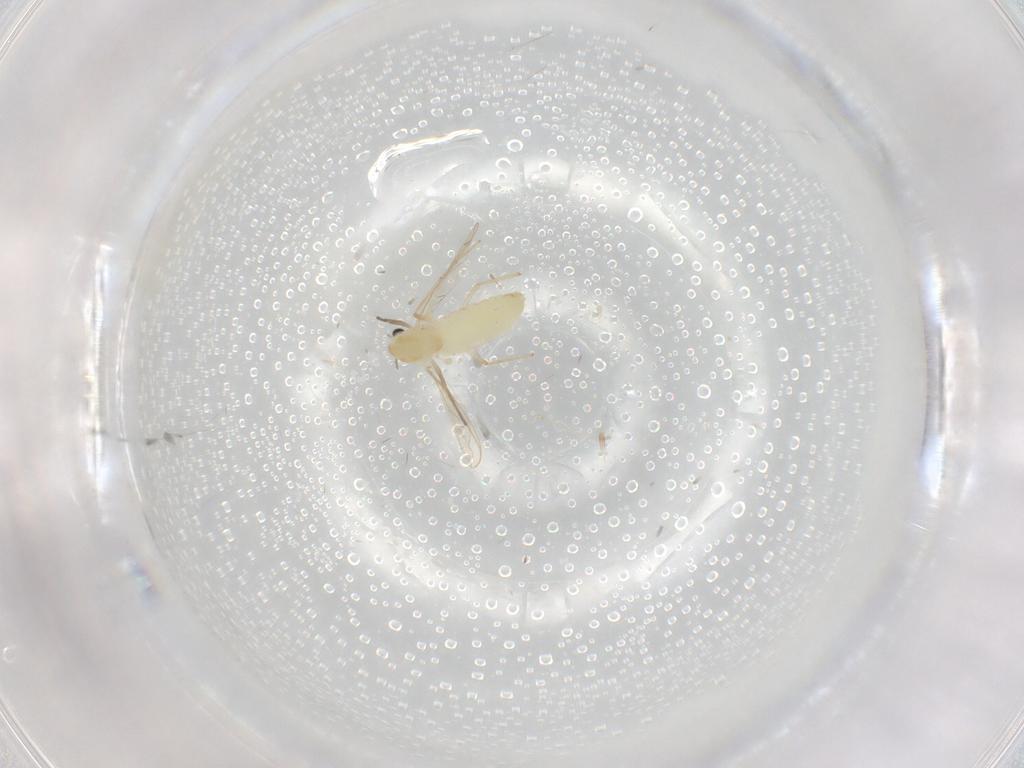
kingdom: Animalia
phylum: Arthropoda
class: Insecta
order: Diptera
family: Chironomidae
